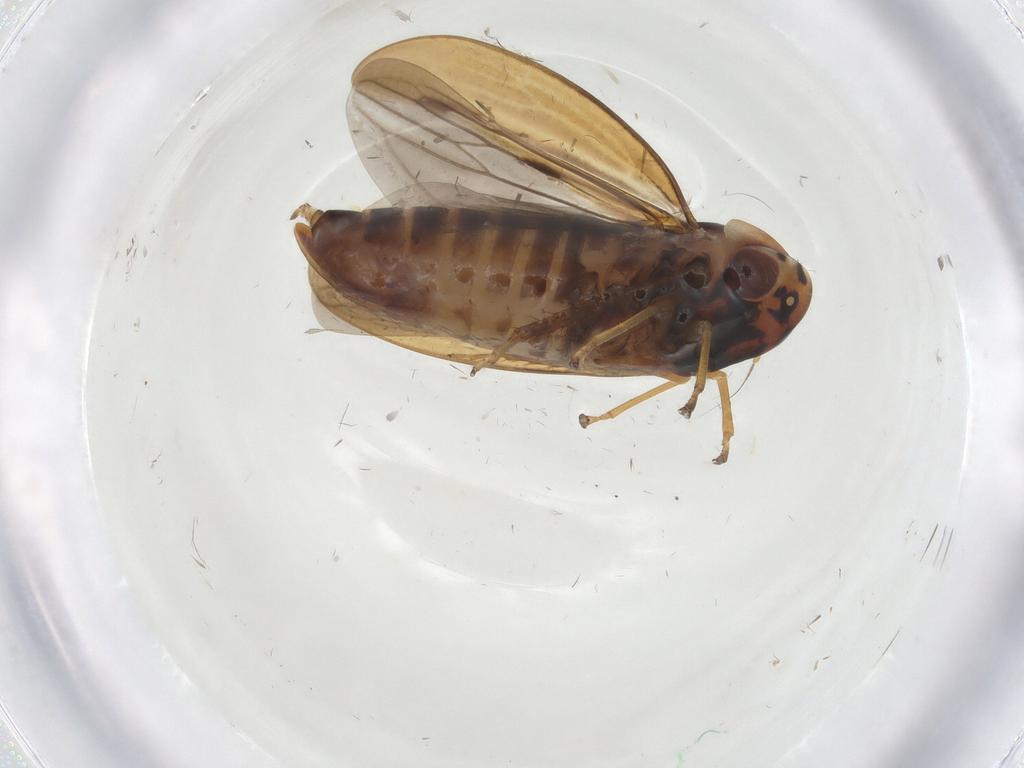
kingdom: Animalia
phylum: Arthropoda
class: Insecta
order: Hemiptera
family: Cicadellidae
